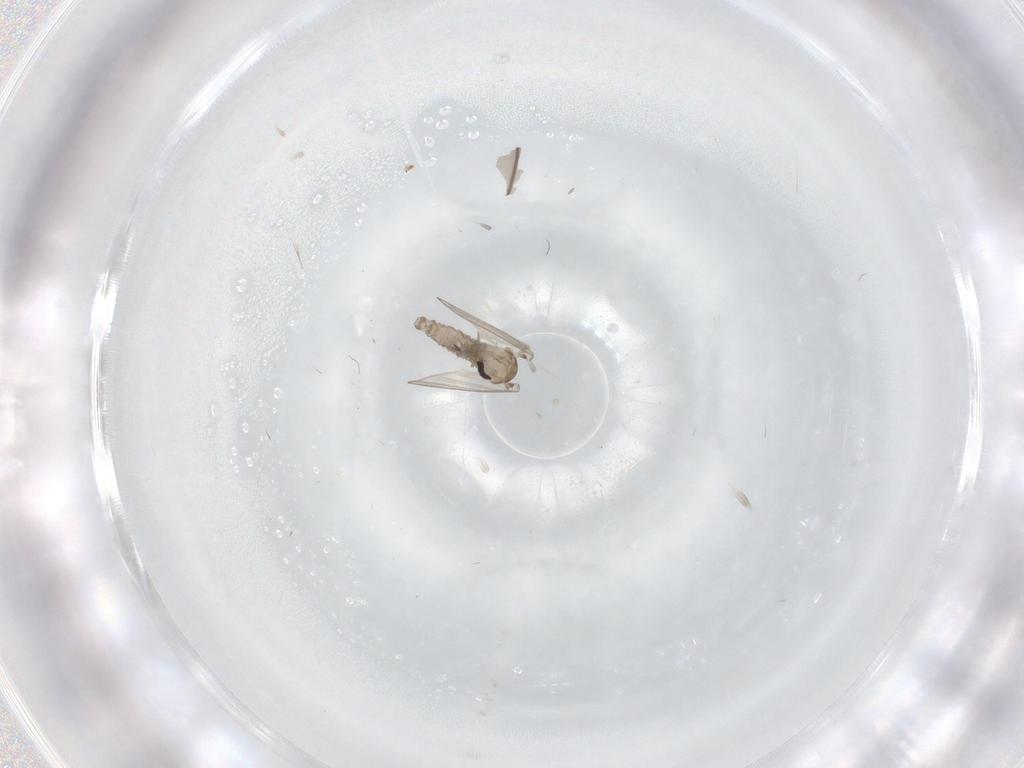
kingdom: Animalia
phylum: Arthropoda
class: Insecta
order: Diptera
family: Psychodidae
